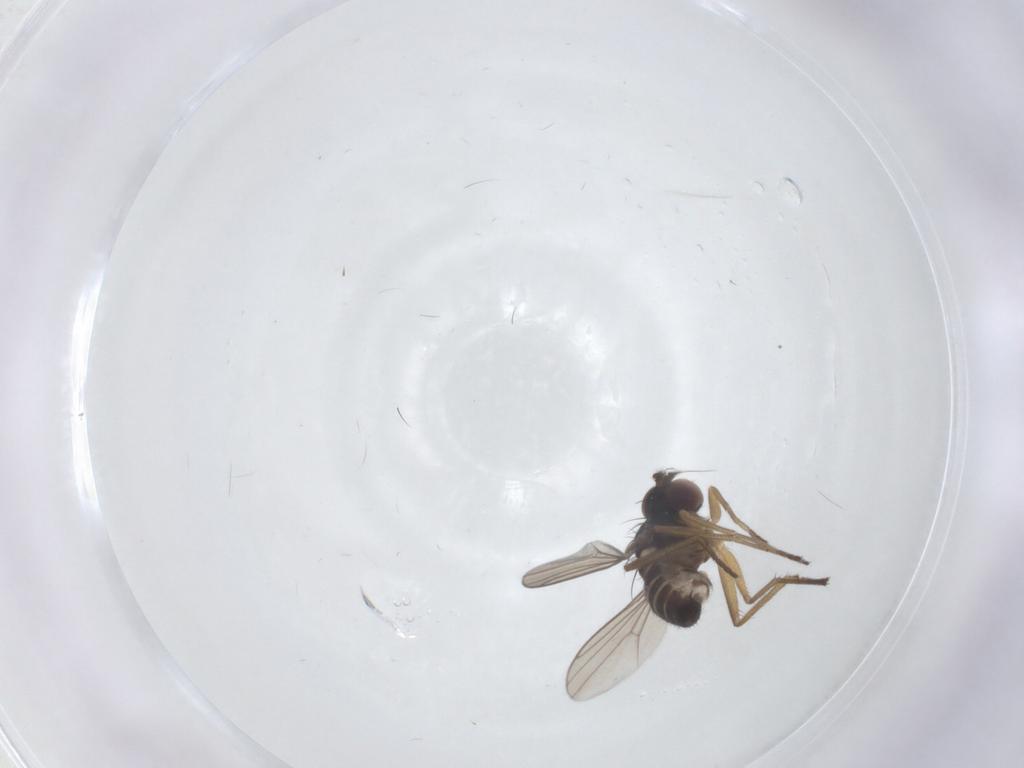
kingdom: Animalia
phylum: Arthropoda
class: Insecta
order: Diptera
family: Dolichopodidae
